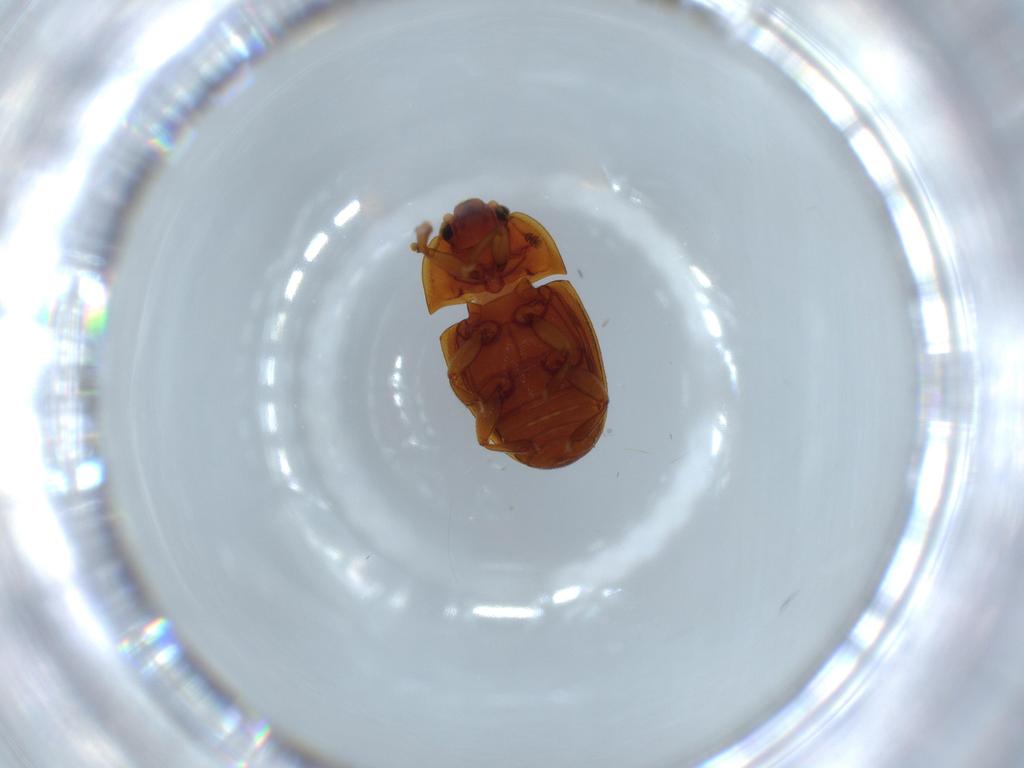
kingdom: Animalia
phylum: Arthropoda
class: Insecta
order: Coleoptera
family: Nitidulidae
